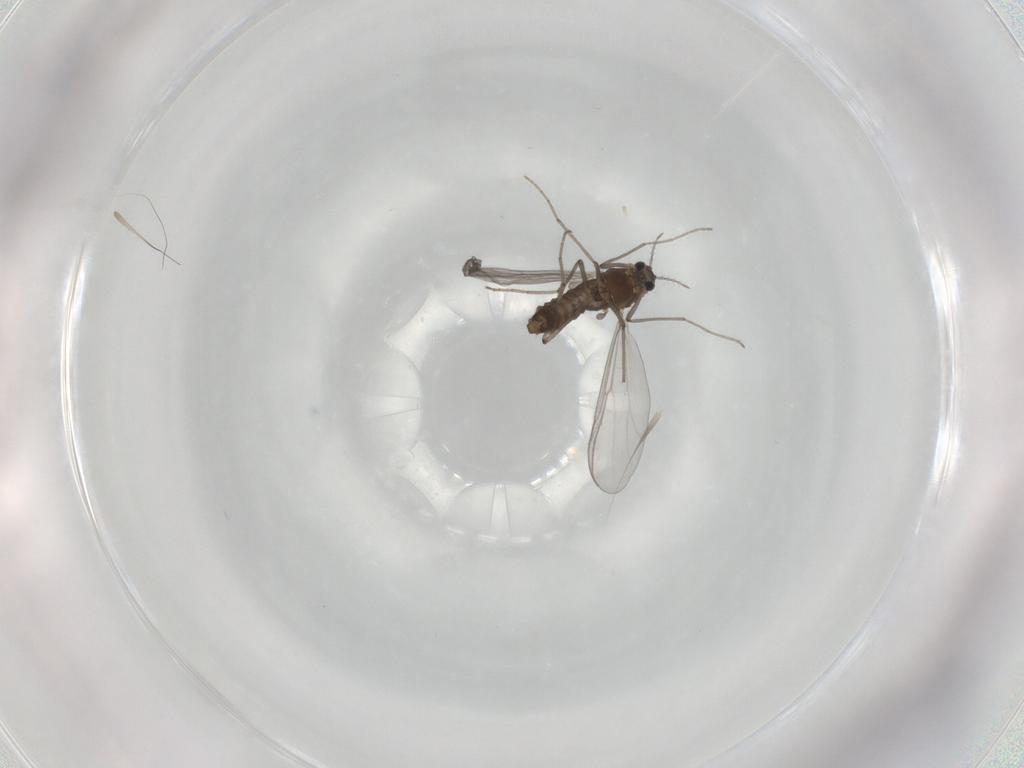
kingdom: Animalia
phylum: Arthropoda
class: Insecta
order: Diptera
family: Chironomidae
